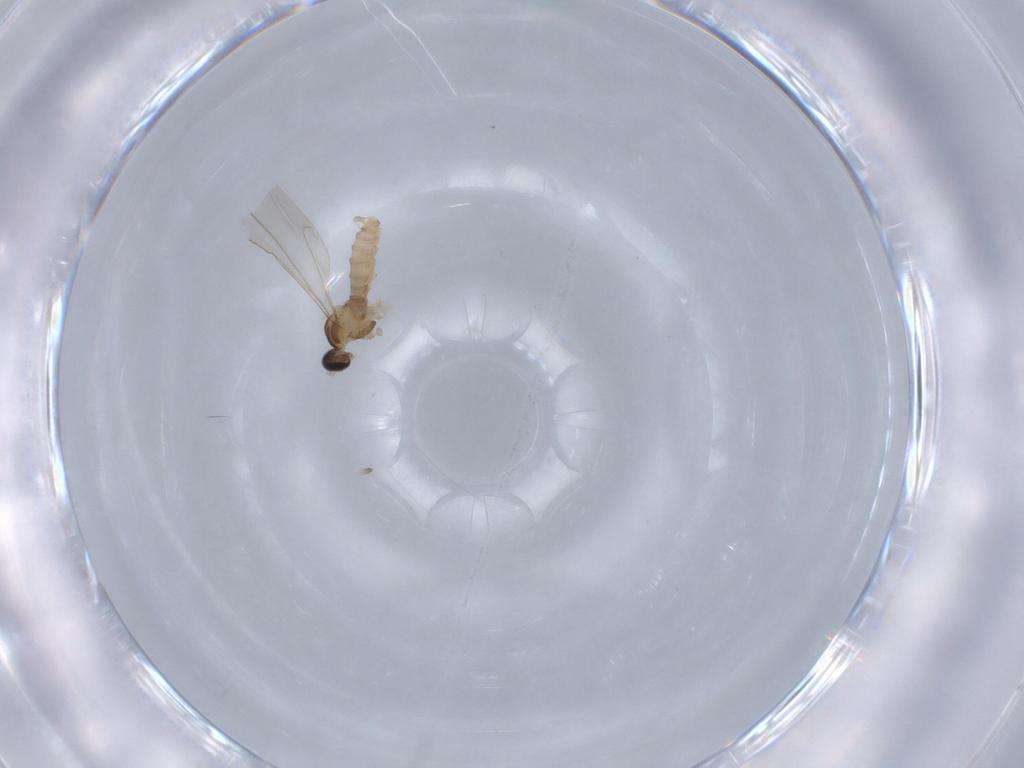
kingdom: Animalia
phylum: Arthropoda
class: Insecta
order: Diptera
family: Cecidomyiidae
